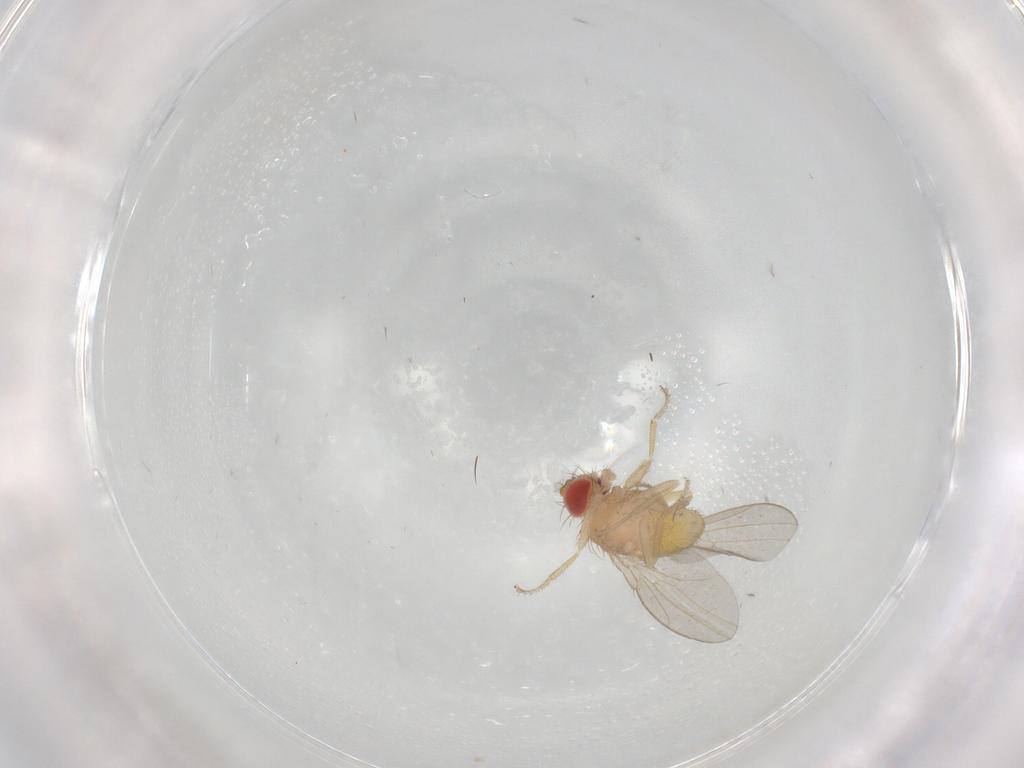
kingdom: Animalia
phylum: Arthropoda
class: Insecta
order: Diptera
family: Drosophilidae
